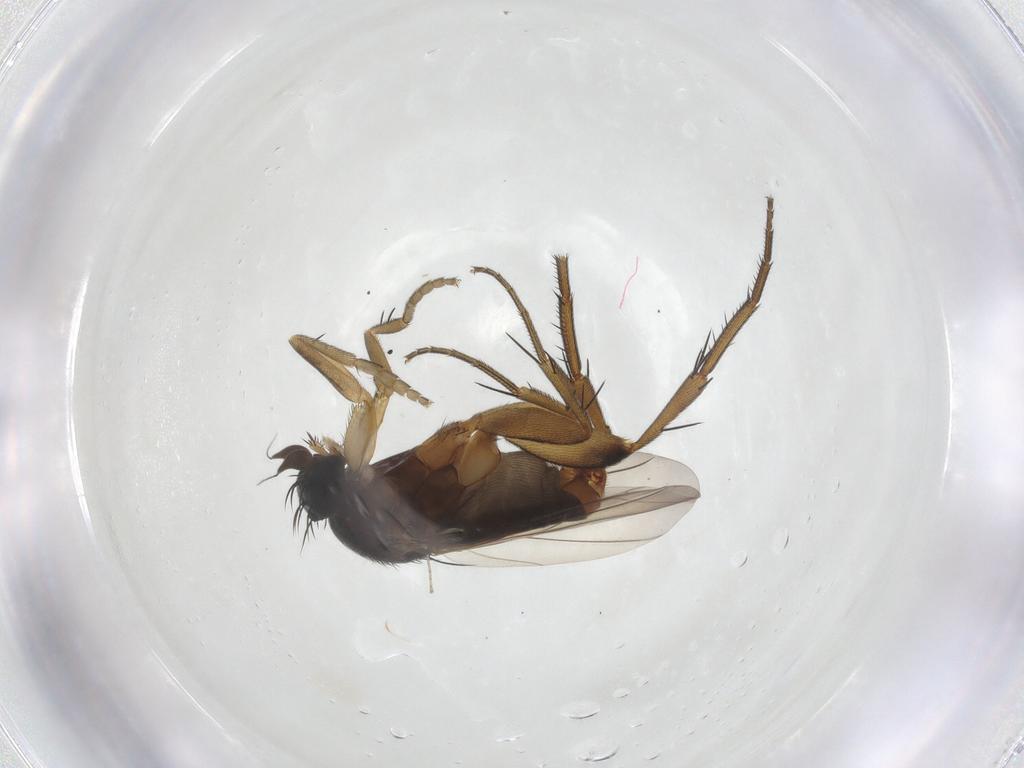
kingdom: Animalia
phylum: Arthropoda
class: Insecta
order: Diptera
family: Phoridae
